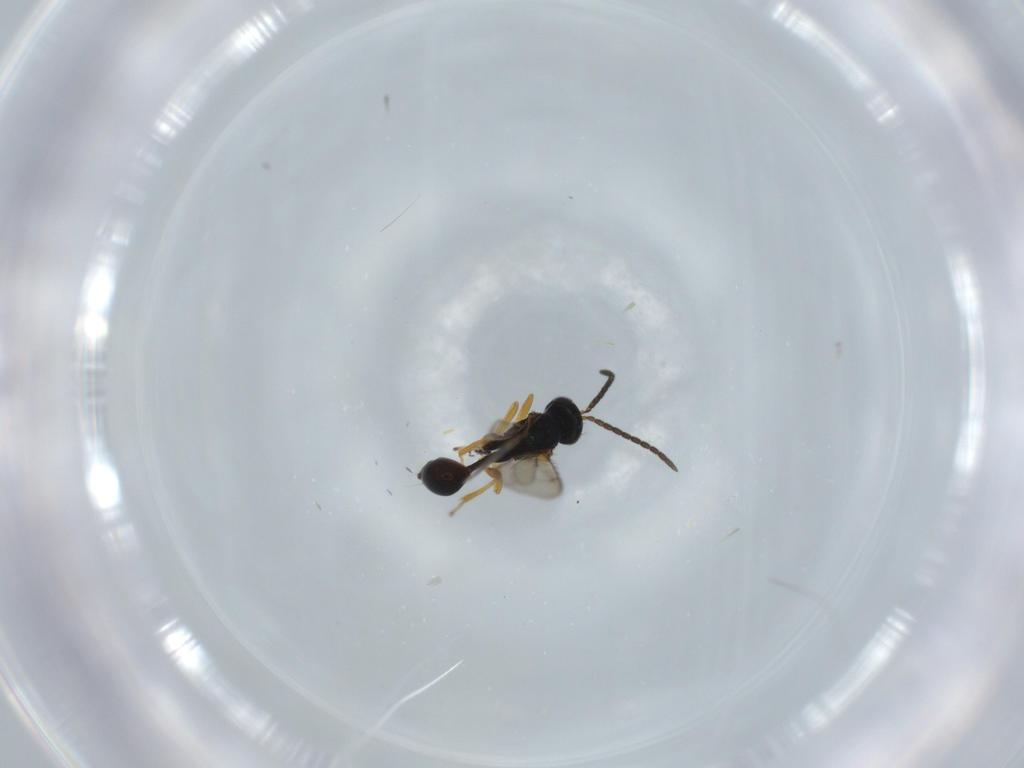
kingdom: Animalia
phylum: Arthropoda
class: Insecta
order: Hymenoptera
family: Diparidae
